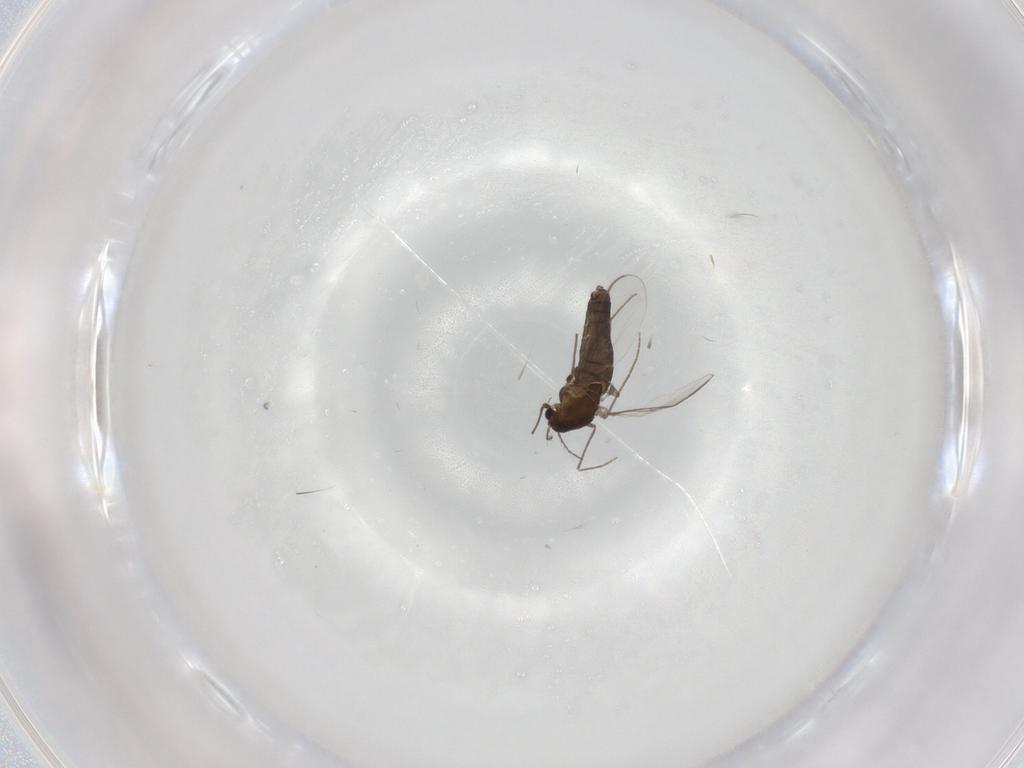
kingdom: Animalia
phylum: Arthropoda
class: Insecta
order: Diptera
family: Chironomidae
